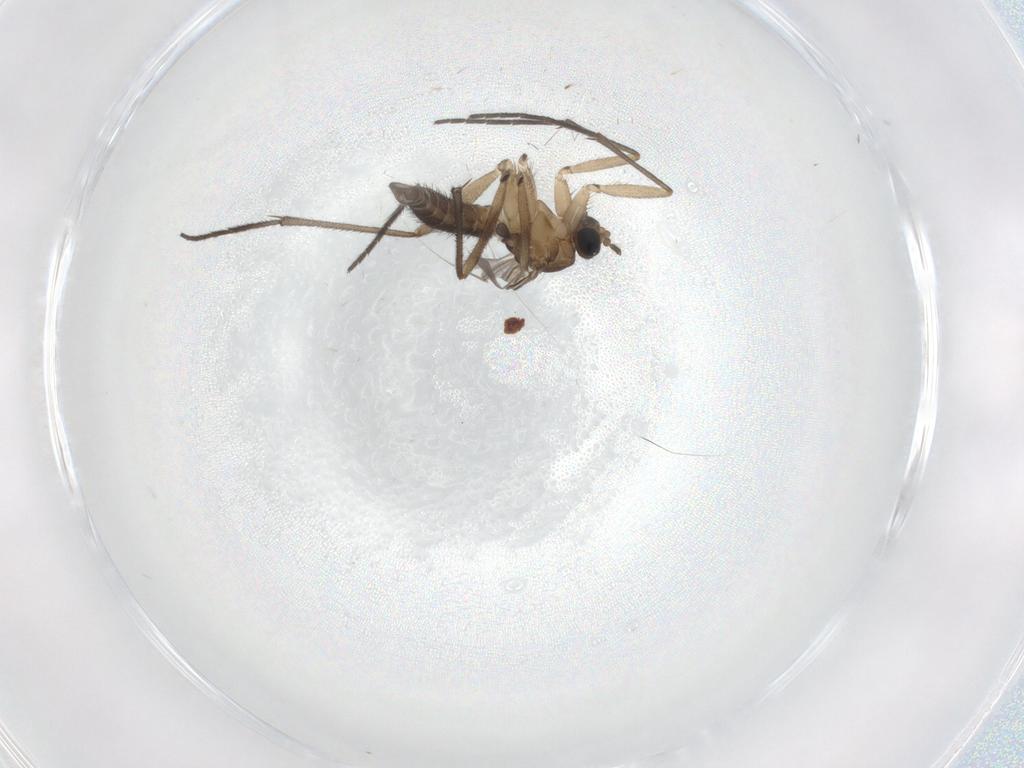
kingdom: Animalia
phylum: Arthropoda
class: Insecta
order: Diptera
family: Sciaridae
